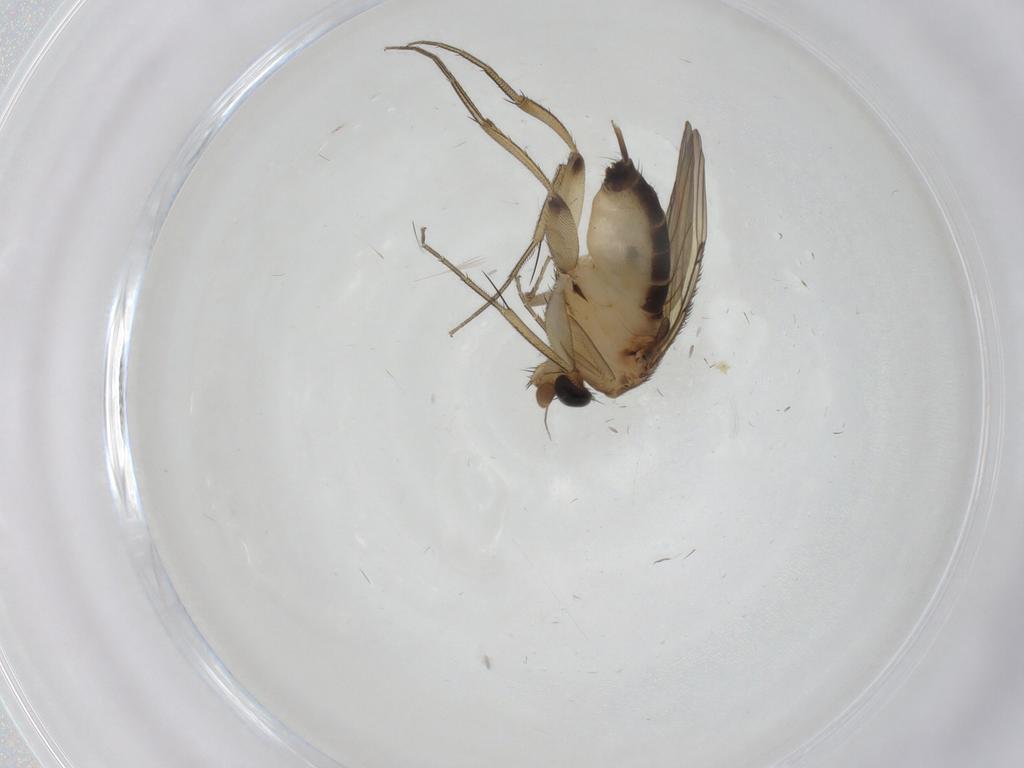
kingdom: Animalia
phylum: Arthropoda
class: Insecta
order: Diptera
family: Phoridae
